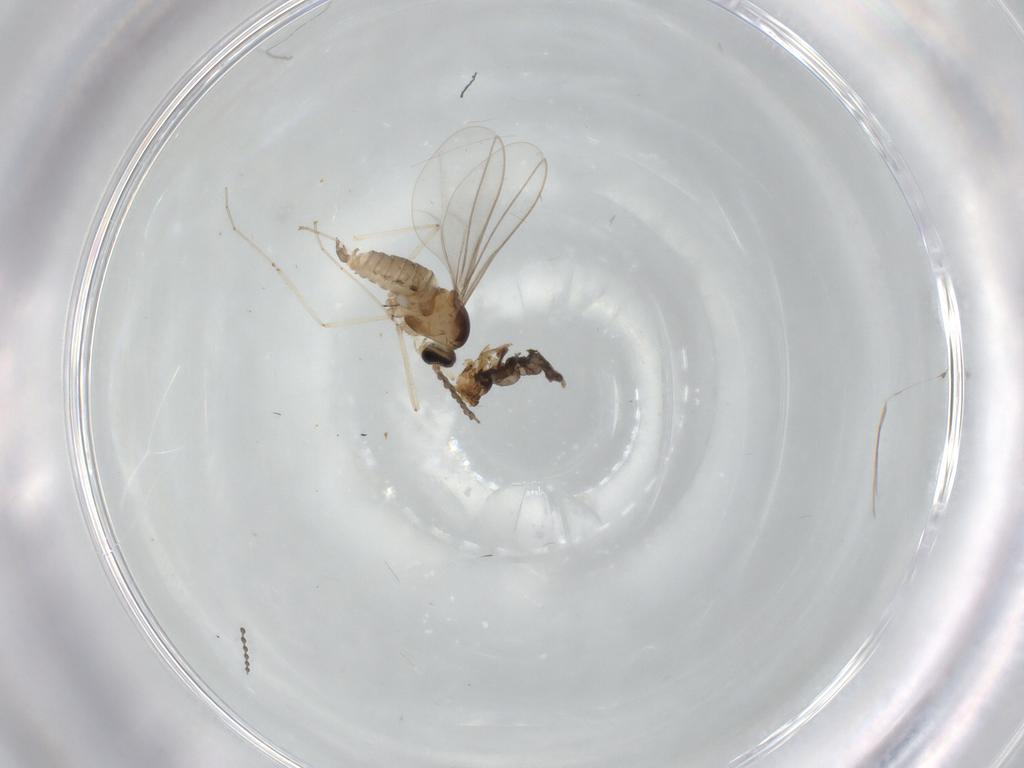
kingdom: Animalia
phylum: Arthropoda
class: Insecta
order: Diptera
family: Phoridae
